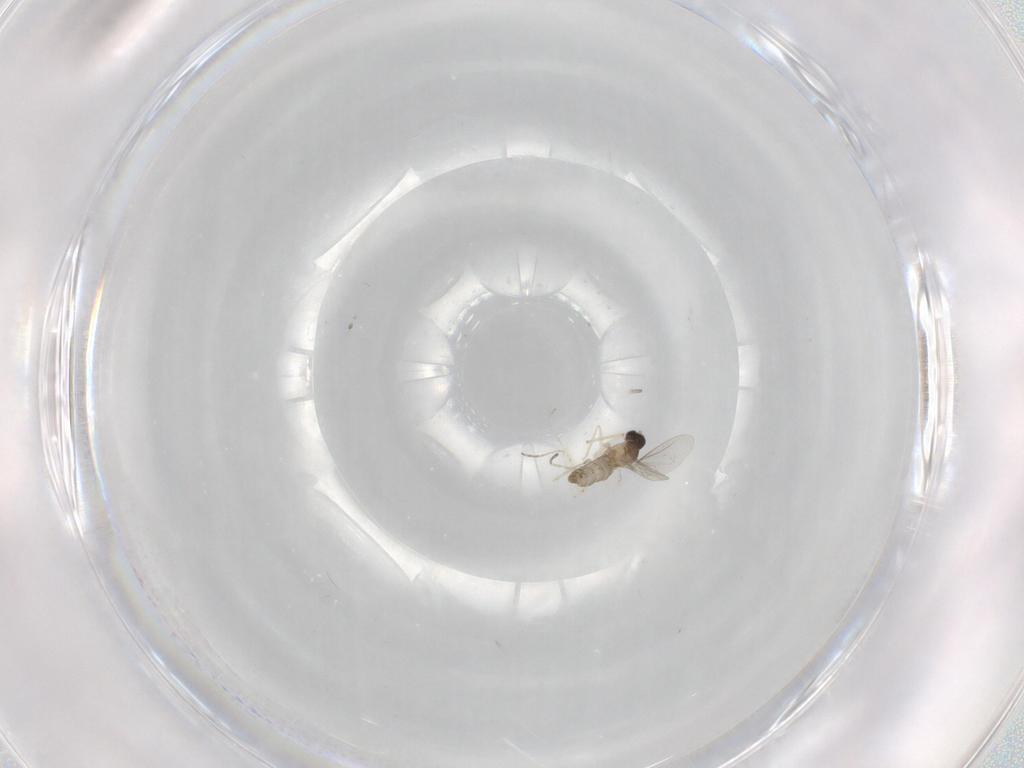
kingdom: Animalia
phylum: Arthropoda
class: Insecta
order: Diptera
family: Cecidomyiidae
